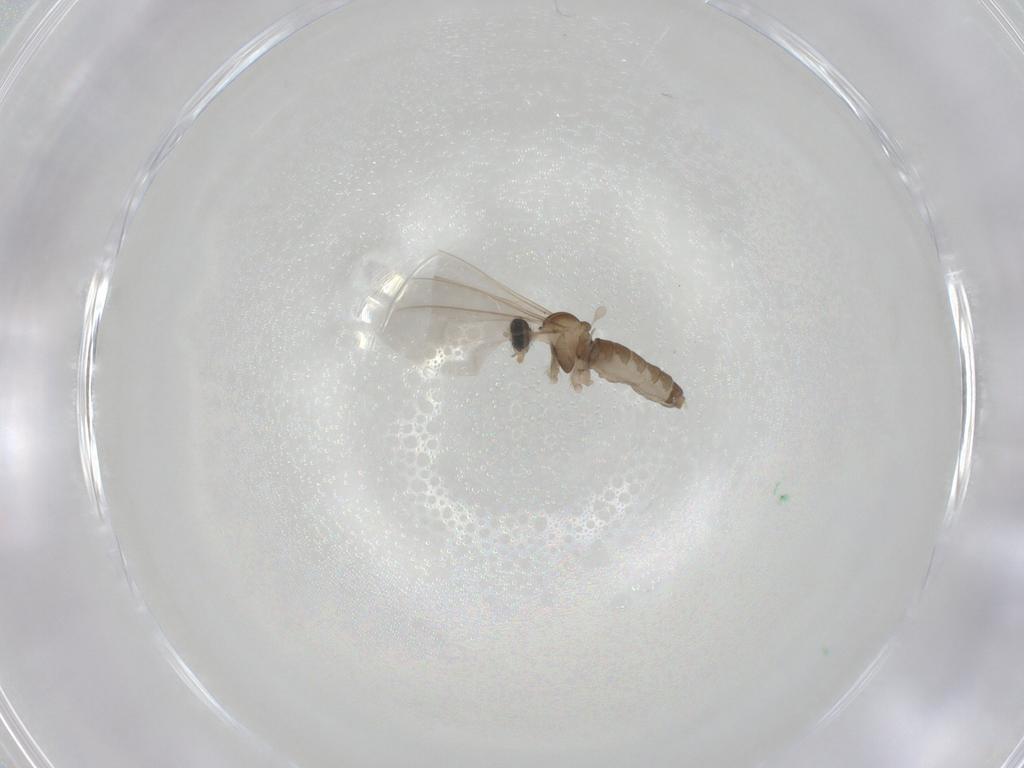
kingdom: Animalia
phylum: Arthropoda
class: Insecta
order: Diptera
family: Cecidomyiidae
